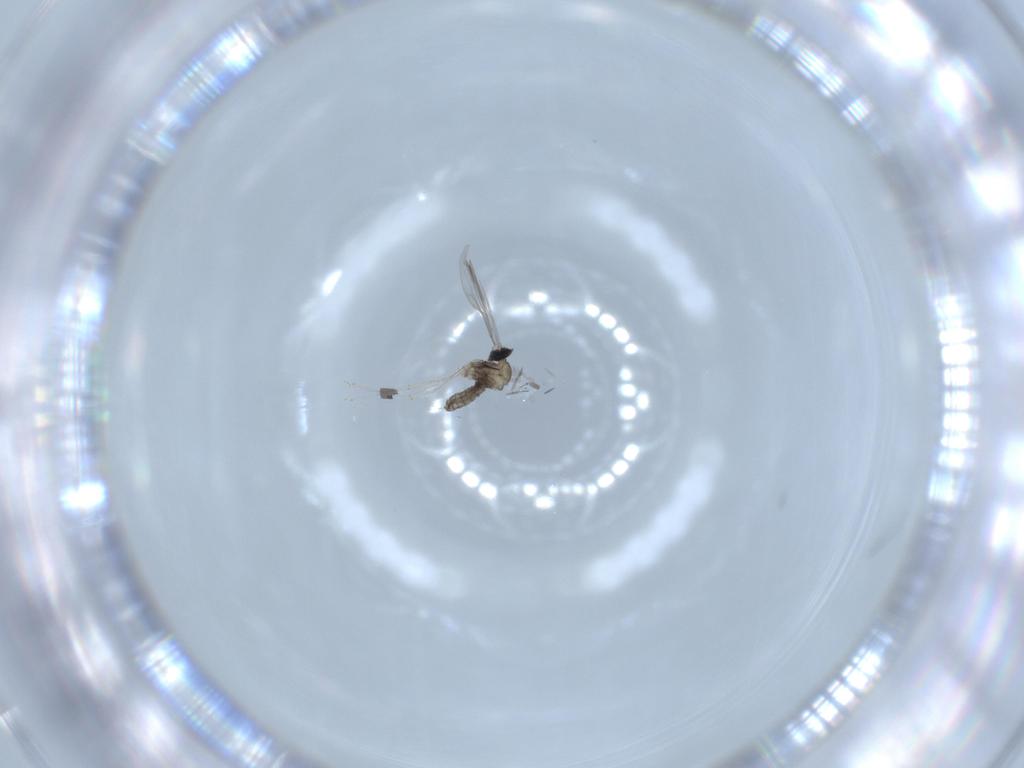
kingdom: Animalia
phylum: Arthropoda
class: Insecta
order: Diptera
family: Cecidomyiidae
